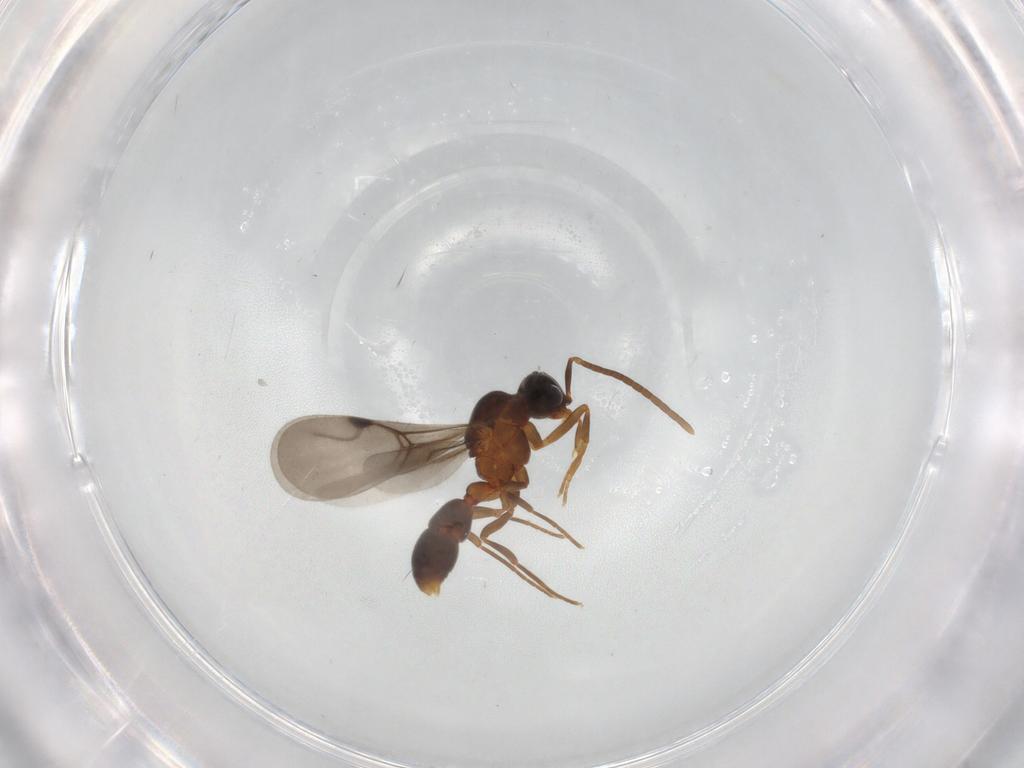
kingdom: Animalia
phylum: Arthropoda
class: Insecta
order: Hymenoptera
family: Formicidae
